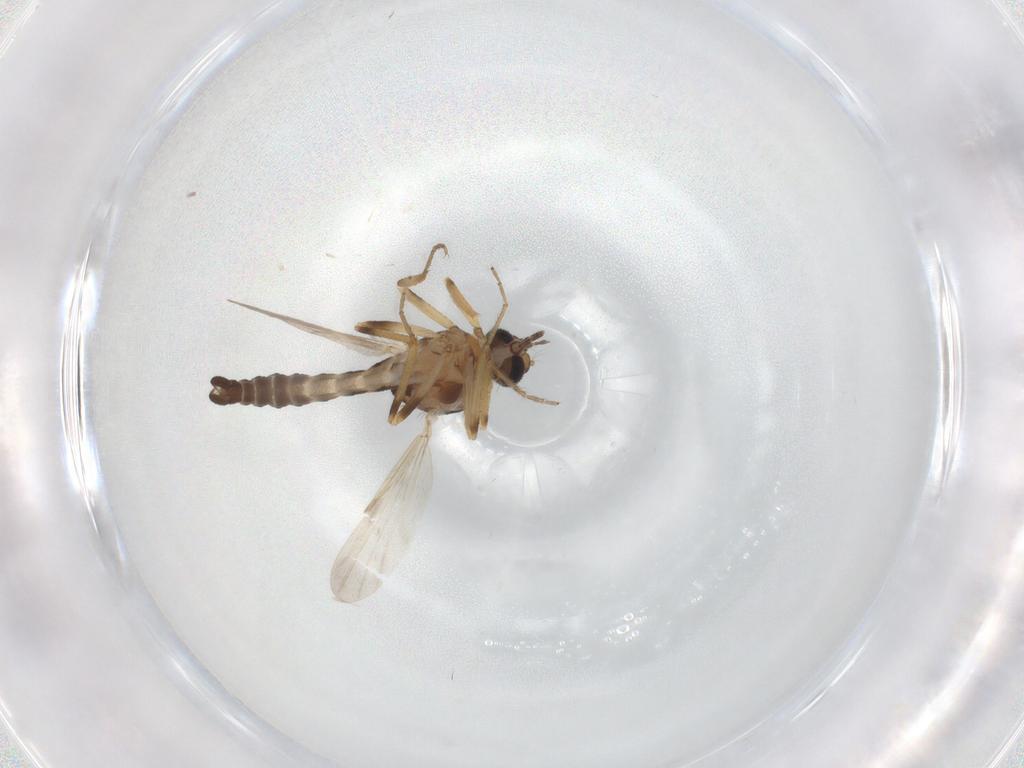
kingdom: Animalia
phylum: Arthropoda
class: Insecta
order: Diptera
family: Ceratopogonidae
